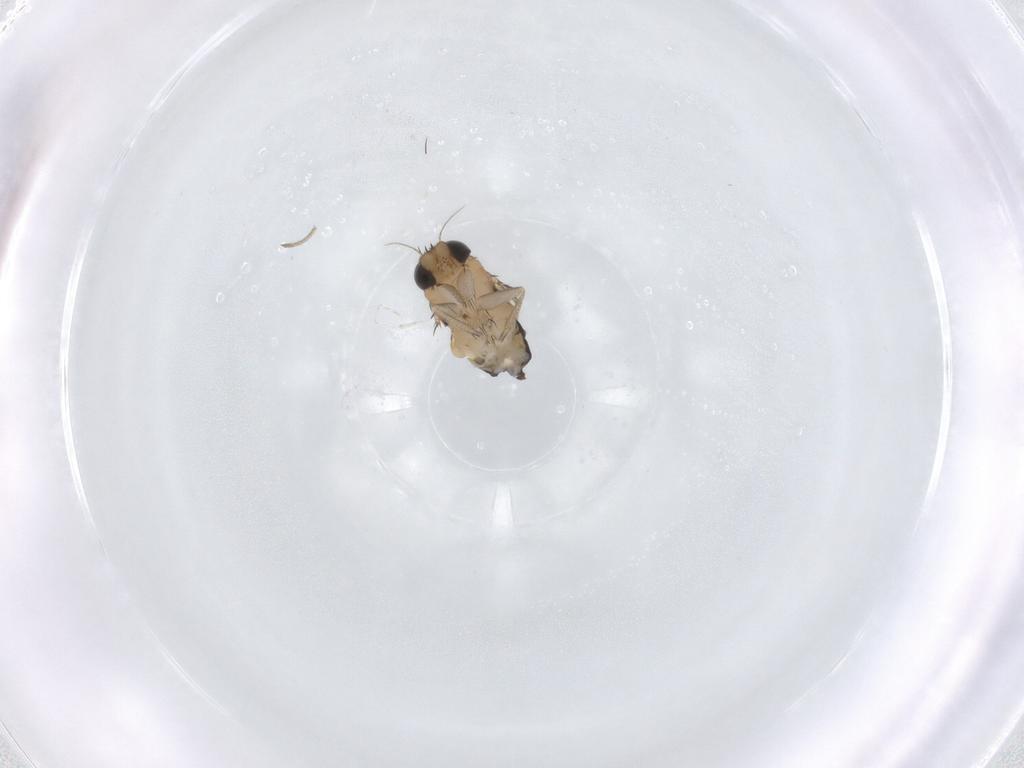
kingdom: Animalia
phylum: Arthropoda
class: Insecta
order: Diptera
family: Phoridae
